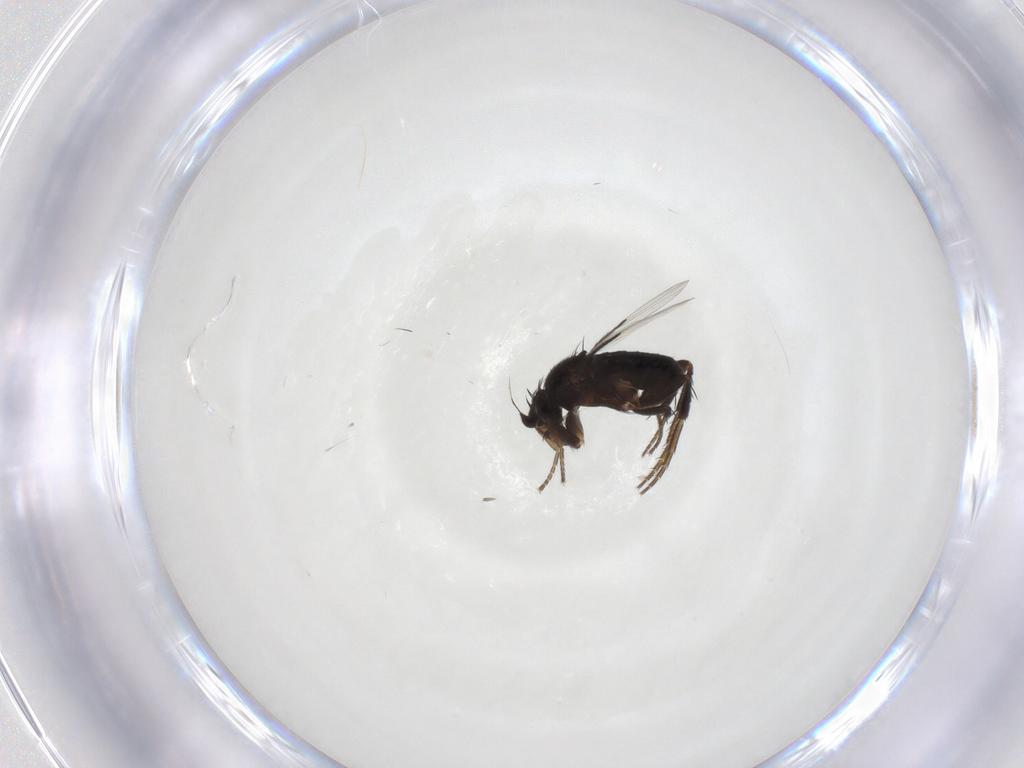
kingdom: Animalia
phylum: Arthropoda
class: Insecta
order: Diptera
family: Phoridae
